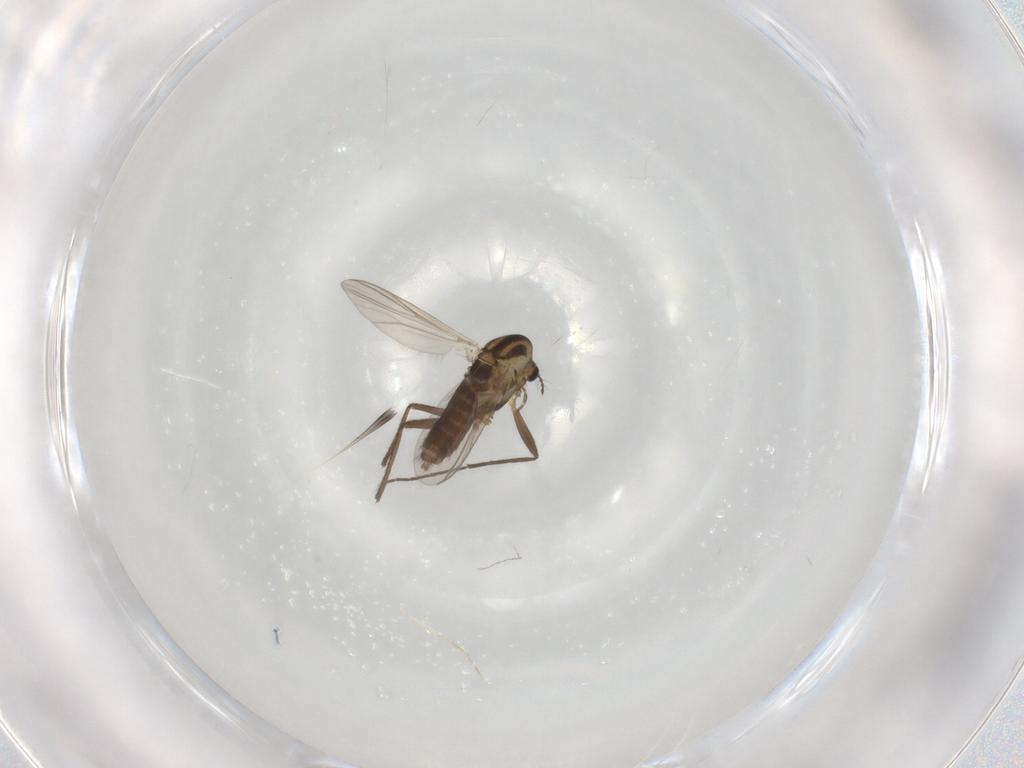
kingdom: Animalia
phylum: Arthropoda
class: Insecta
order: Diptera
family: Chironomidae
